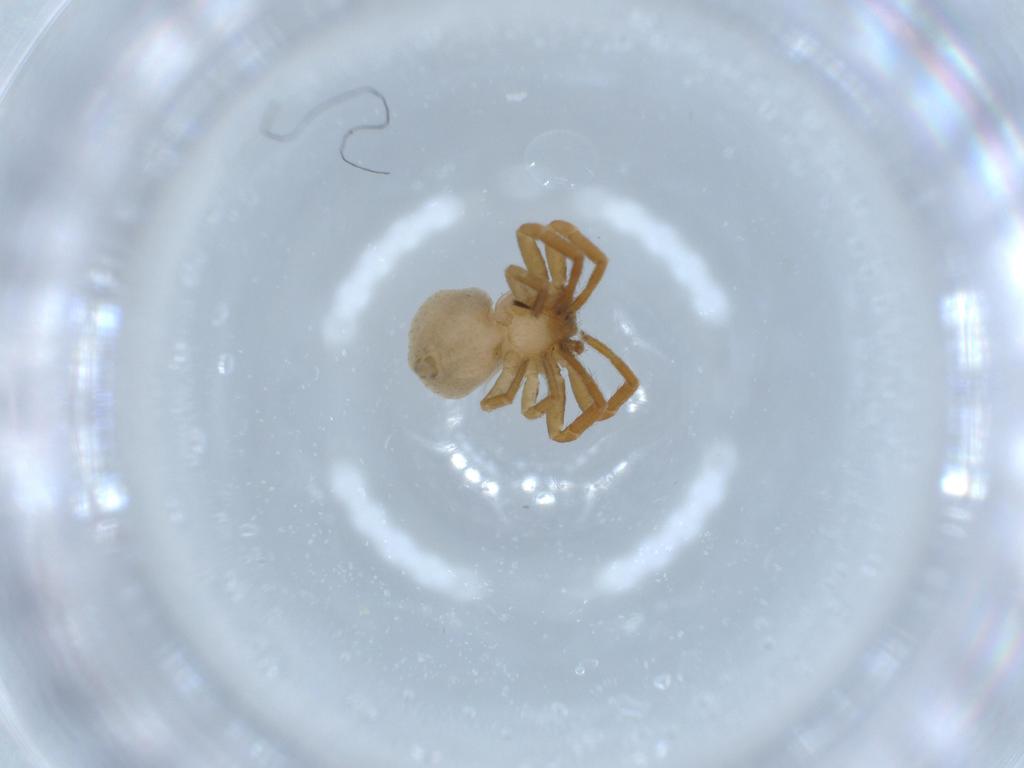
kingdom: Animalia
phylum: Arthropoda
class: Arachnida
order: Araneae
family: Thomisidae
